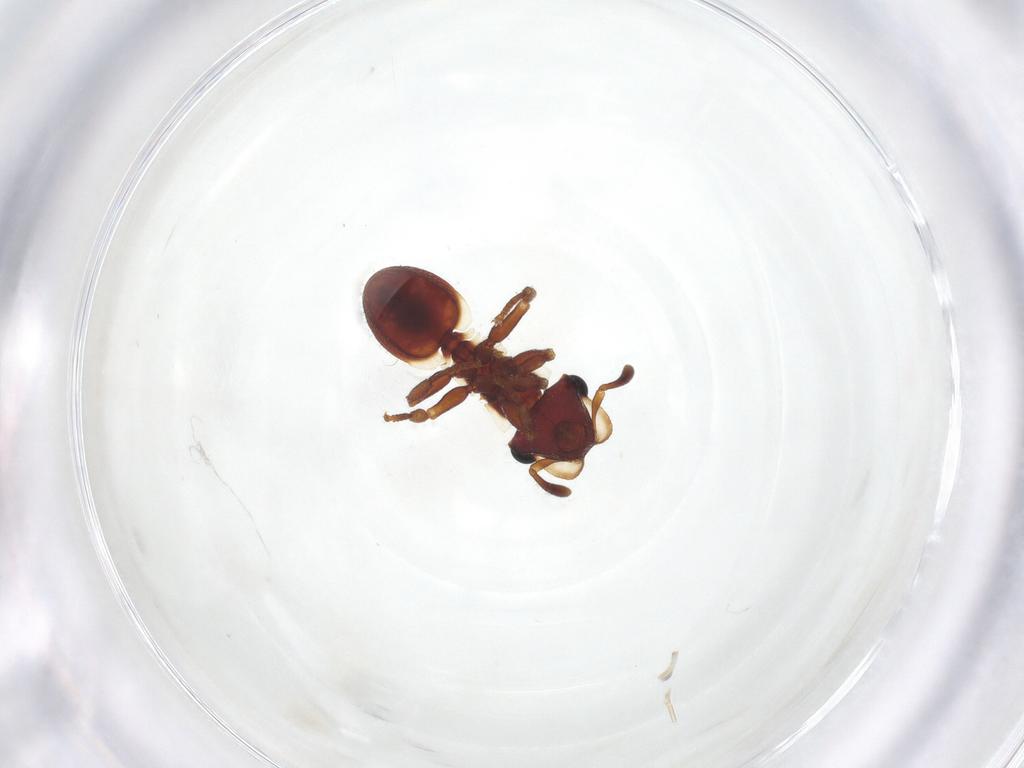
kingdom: Animalia
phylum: Arthropoda
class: Insecta
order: Hymenoptera
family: Formicidae
